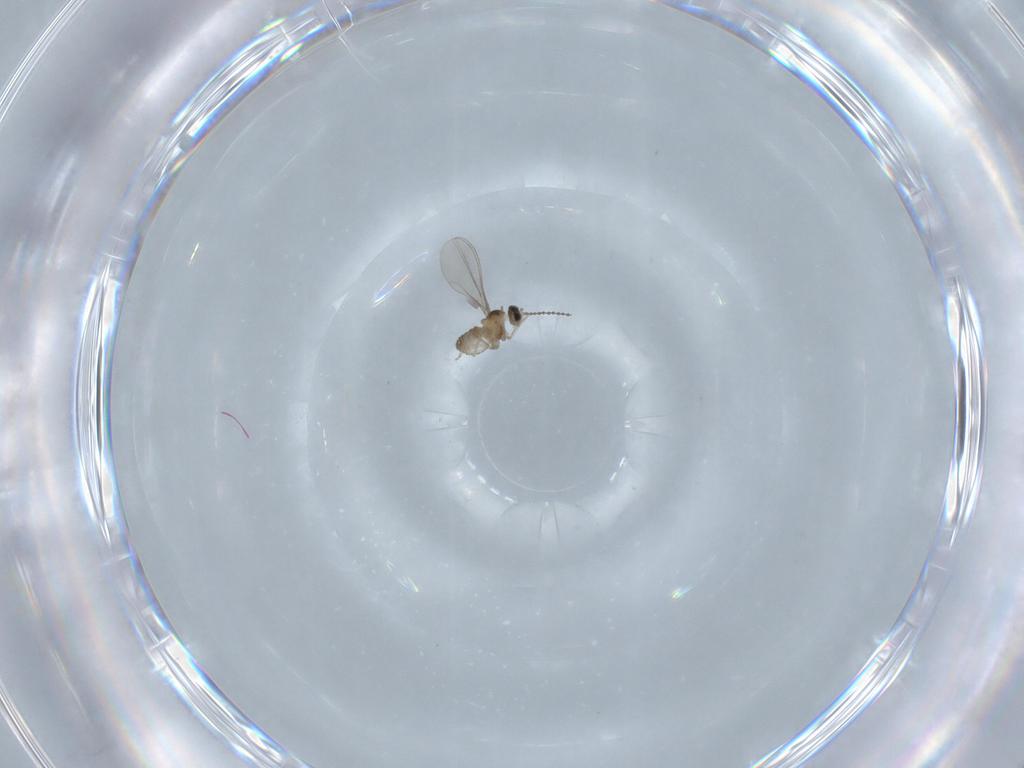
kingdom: Animalia
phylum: Arthropoda
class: Insecta
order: Diptera
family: Cecidomyiidae
